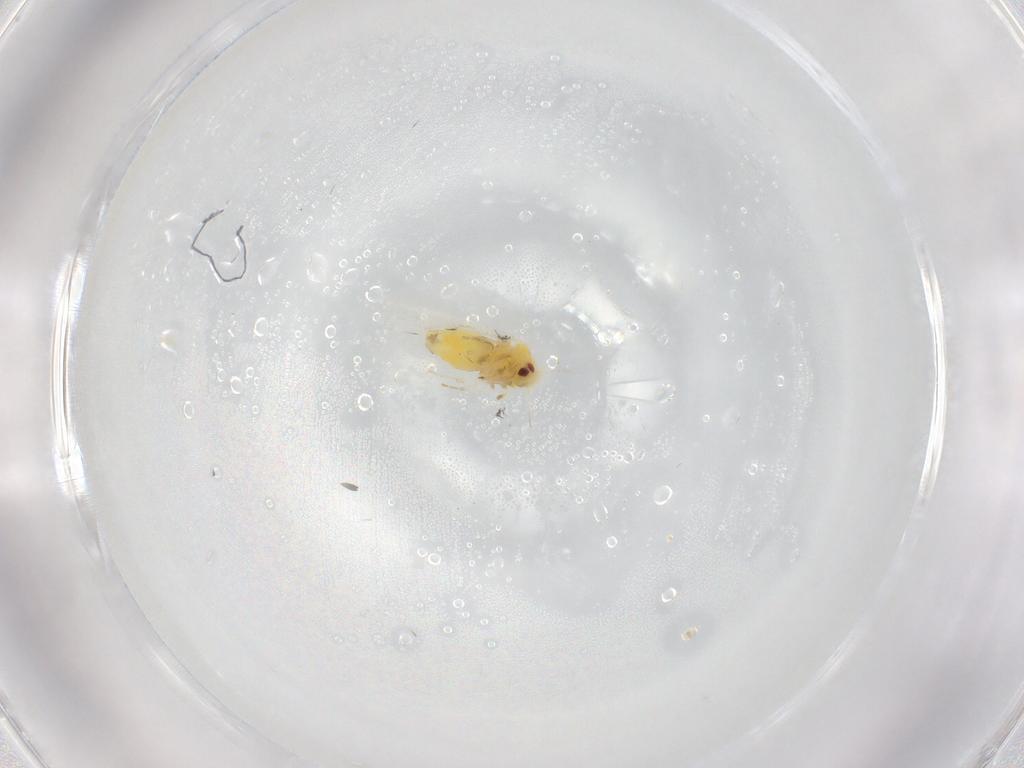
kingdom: Animalia
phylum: Arthropoda
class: Insecta
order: Hemiptera
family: Aleyrodidae
